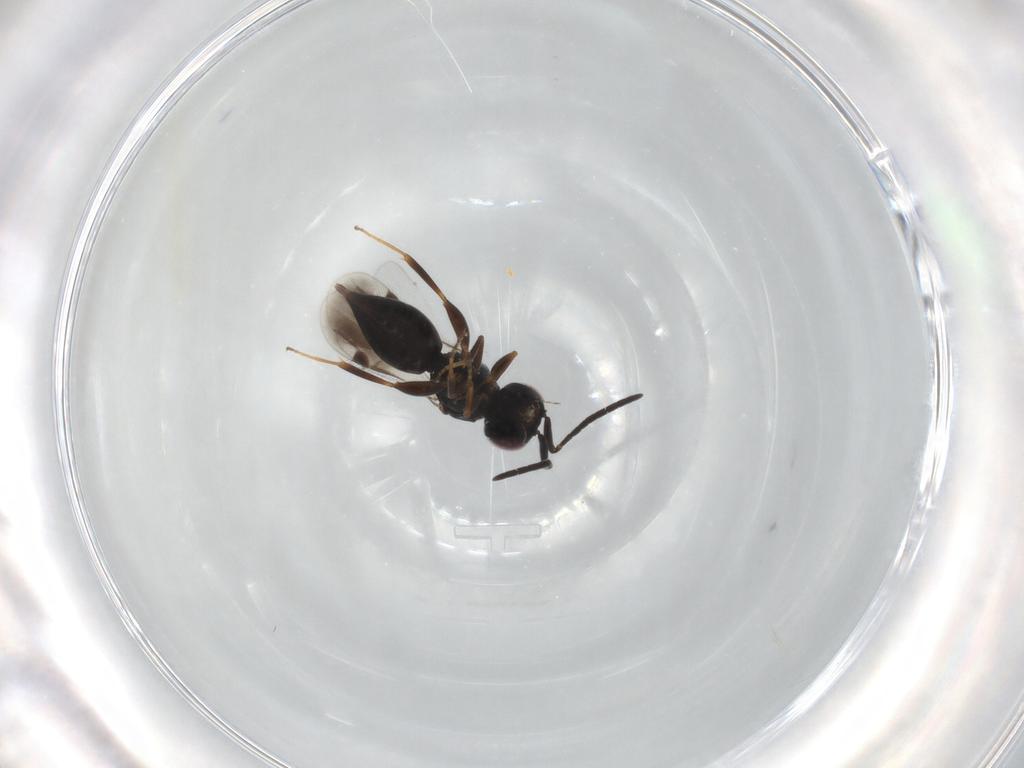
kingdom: Animalia
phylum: Arthropoda
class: Insecta
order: Hymenoptera
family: Megaspilidae
